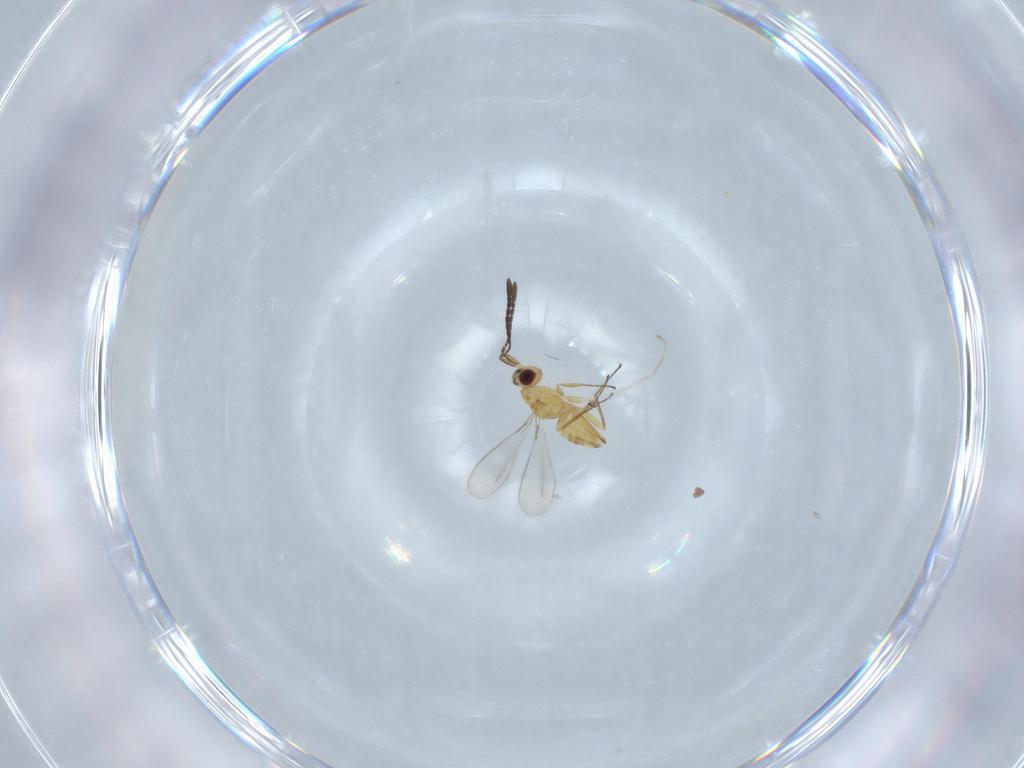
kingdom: Animalia
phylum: Arthropoda
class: Insecta
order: Hymenoptera
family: Mymaridae
